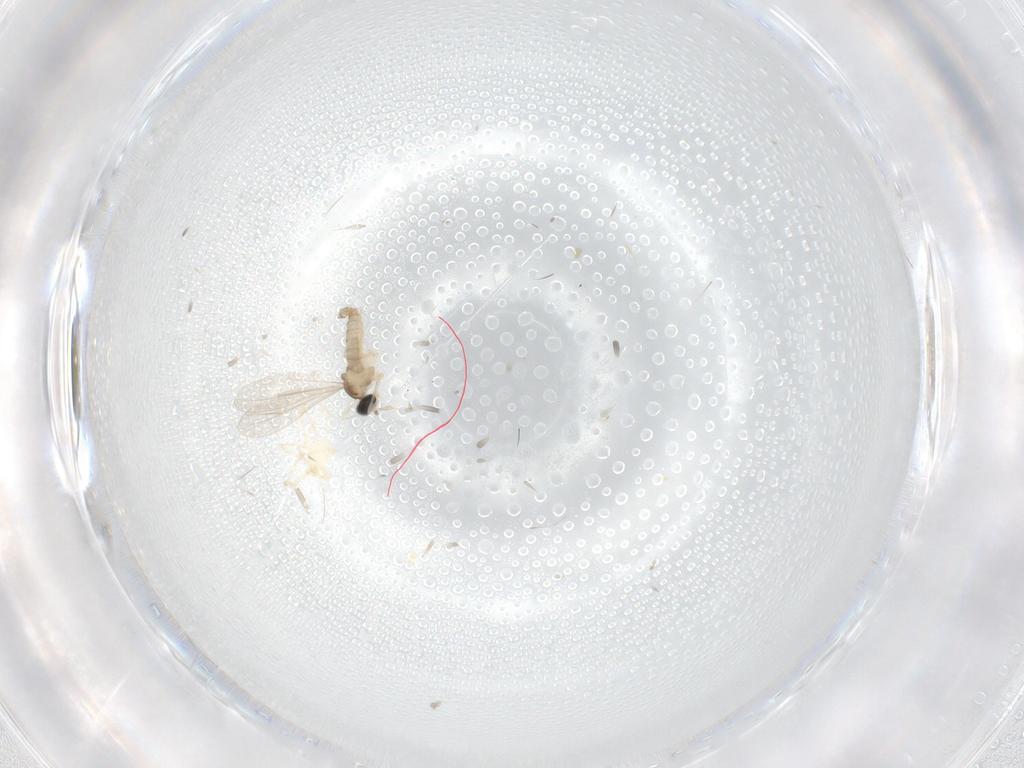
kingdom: Animalia
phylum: Arthropoda
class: Insecta
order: Diptera
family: Cecidomyiidae
